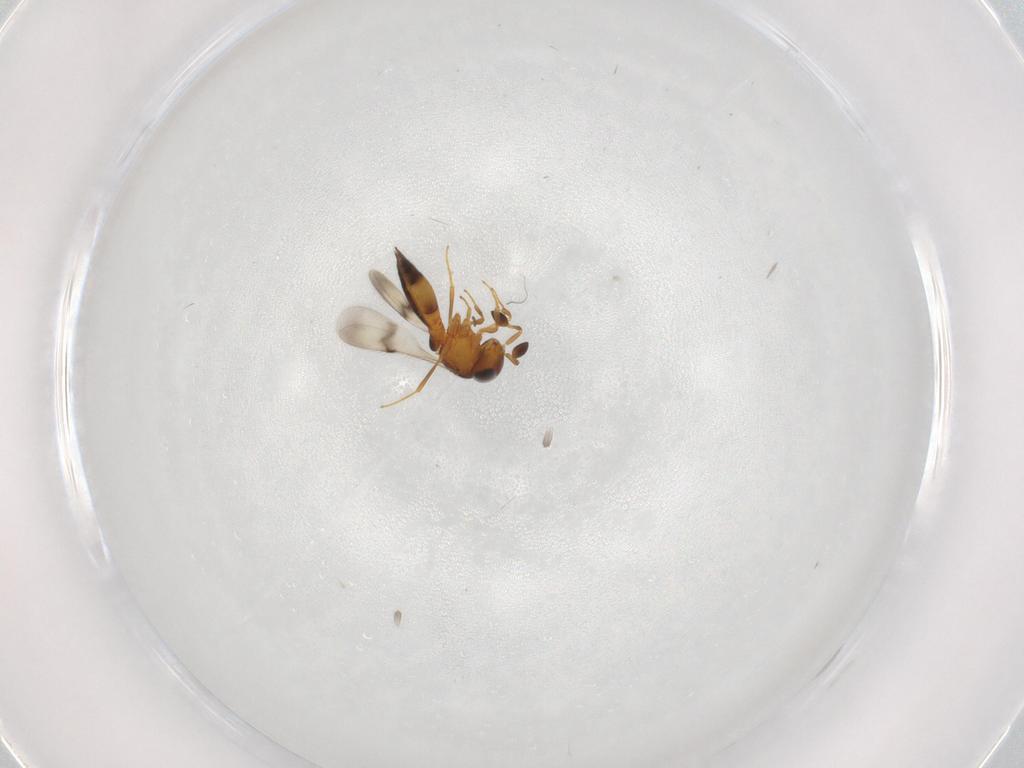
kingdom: Animalia
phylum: Arthropoda
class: Insecta
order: Hymenoptera
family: Scelionidae
